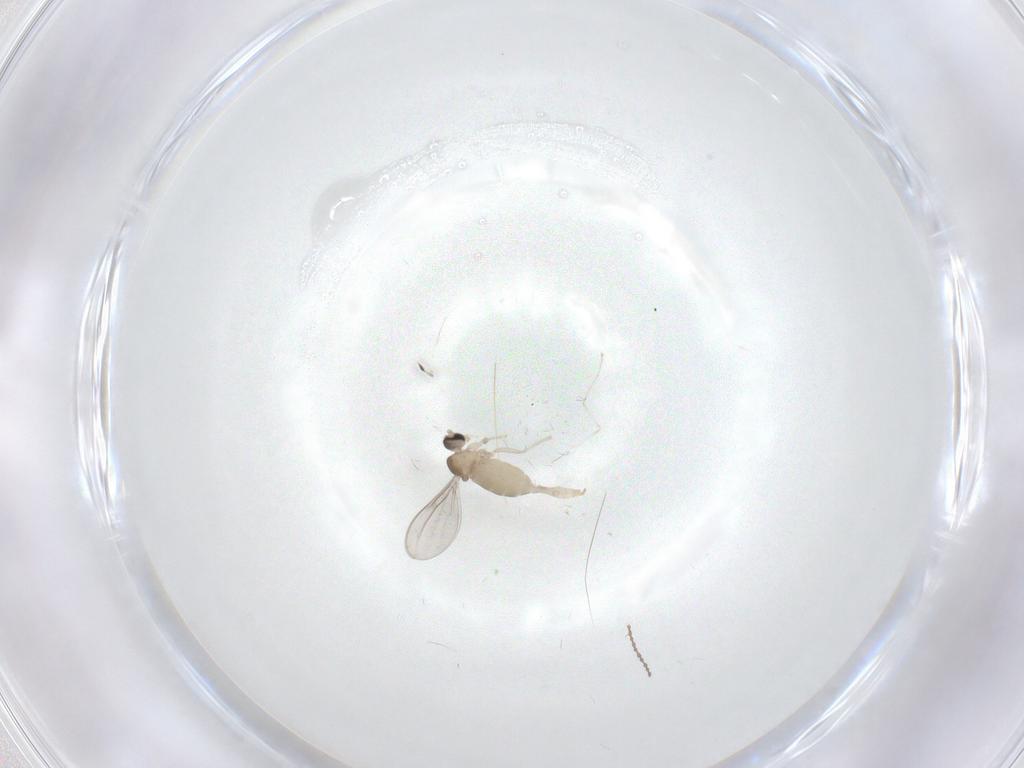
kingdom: Animalia
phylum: Arthropoda
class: Insecta
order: Diptera
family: Cecidomyiidae
